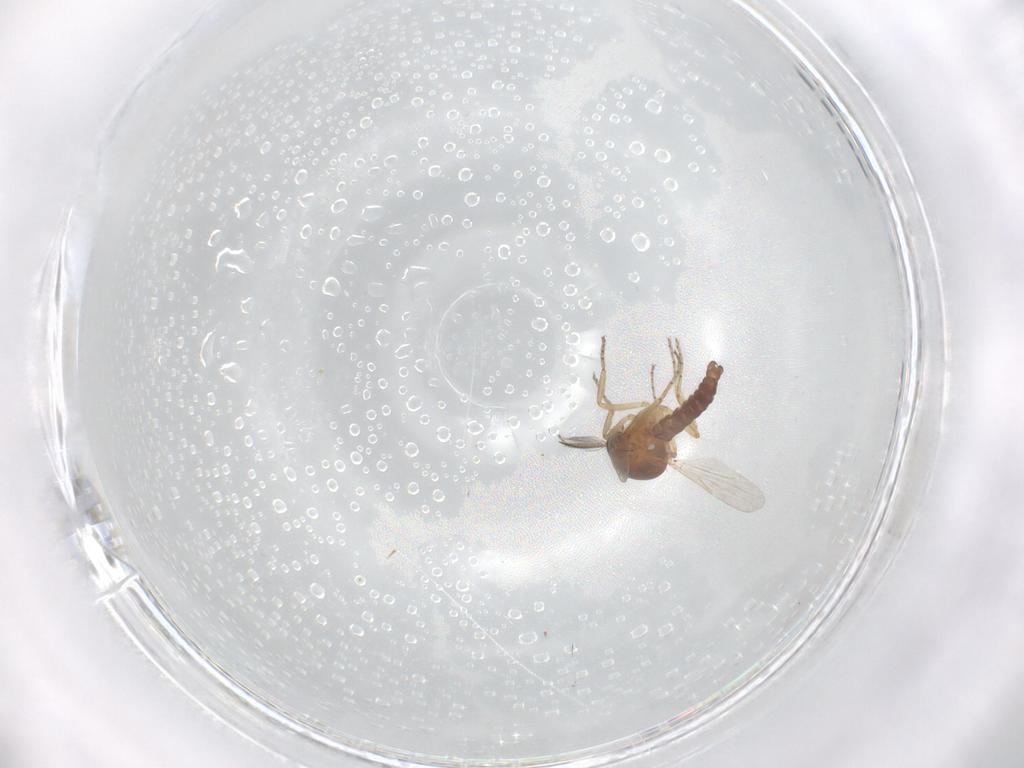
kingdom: Animalia
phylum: Arthropoda
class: Insecta
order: Diptera
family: Sciaridae
